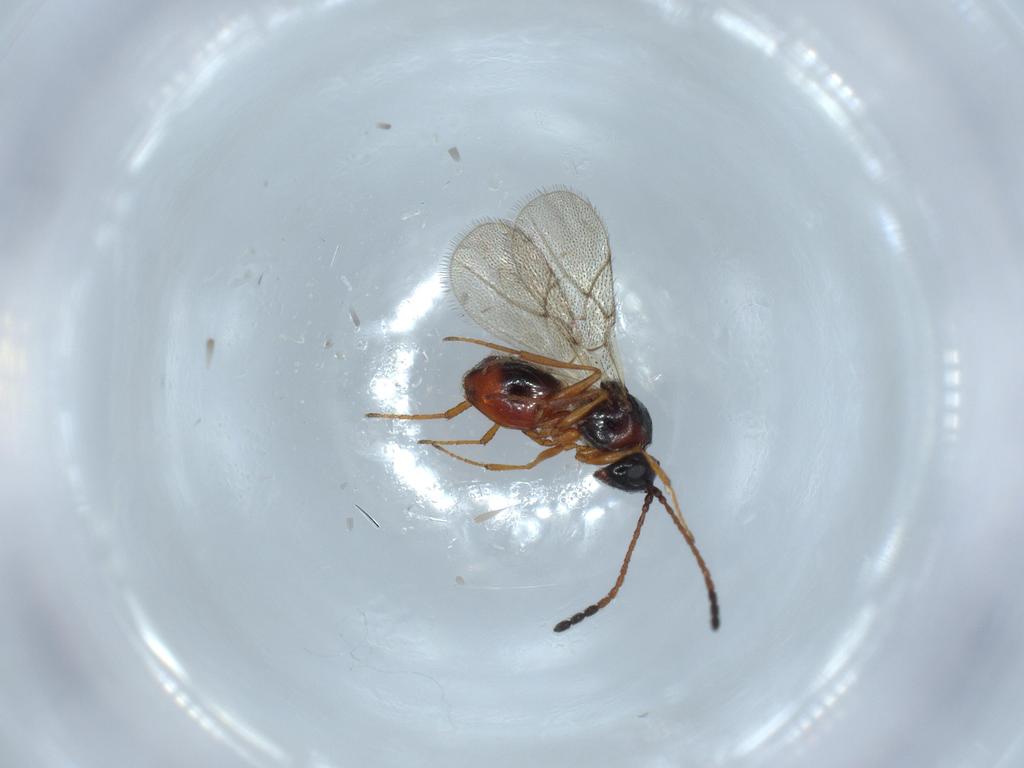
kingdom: Animalia
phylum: Arthropoda
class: Insecta
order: Hymenoptera
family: Figitidae
